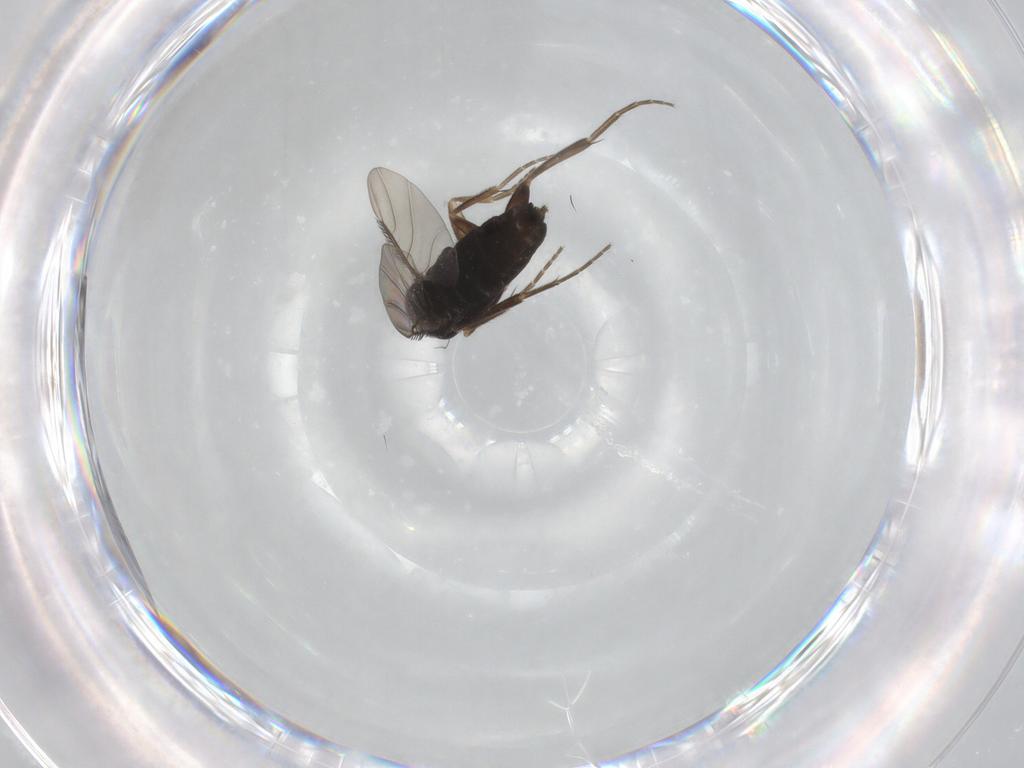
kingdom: Animalia
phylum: Arthropoda
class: Insecta
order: Diptera
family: Phoridae
